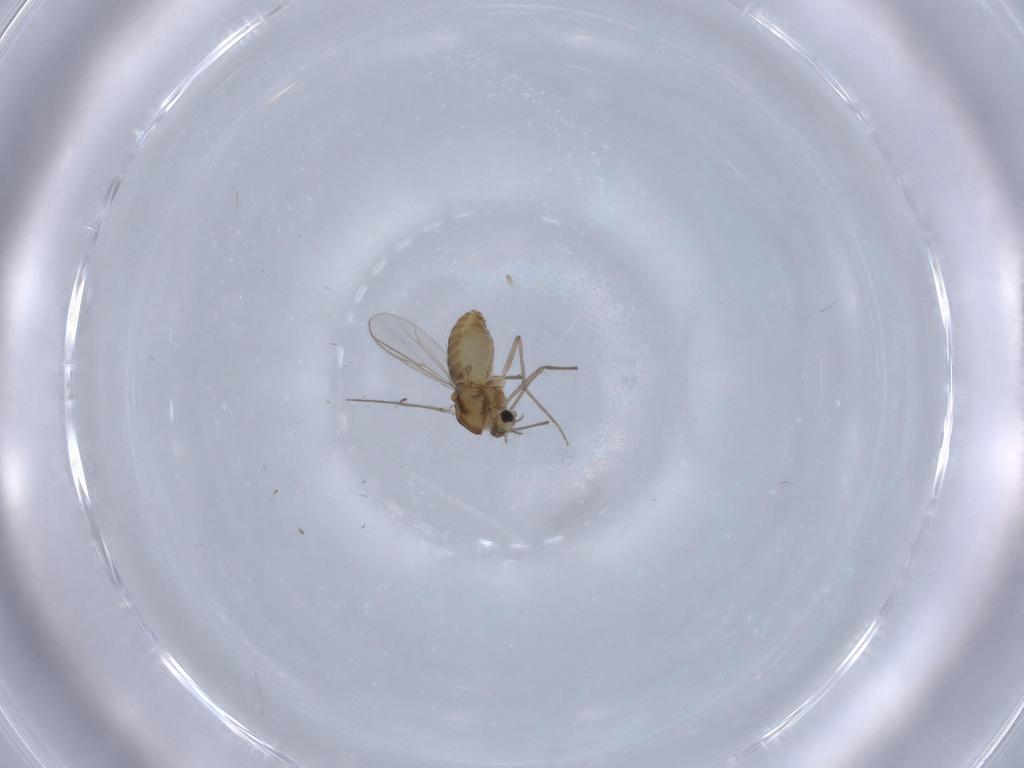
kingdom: Animalia
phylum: Arthropoda
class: Insecta
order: Diptera
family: Chironomidae
